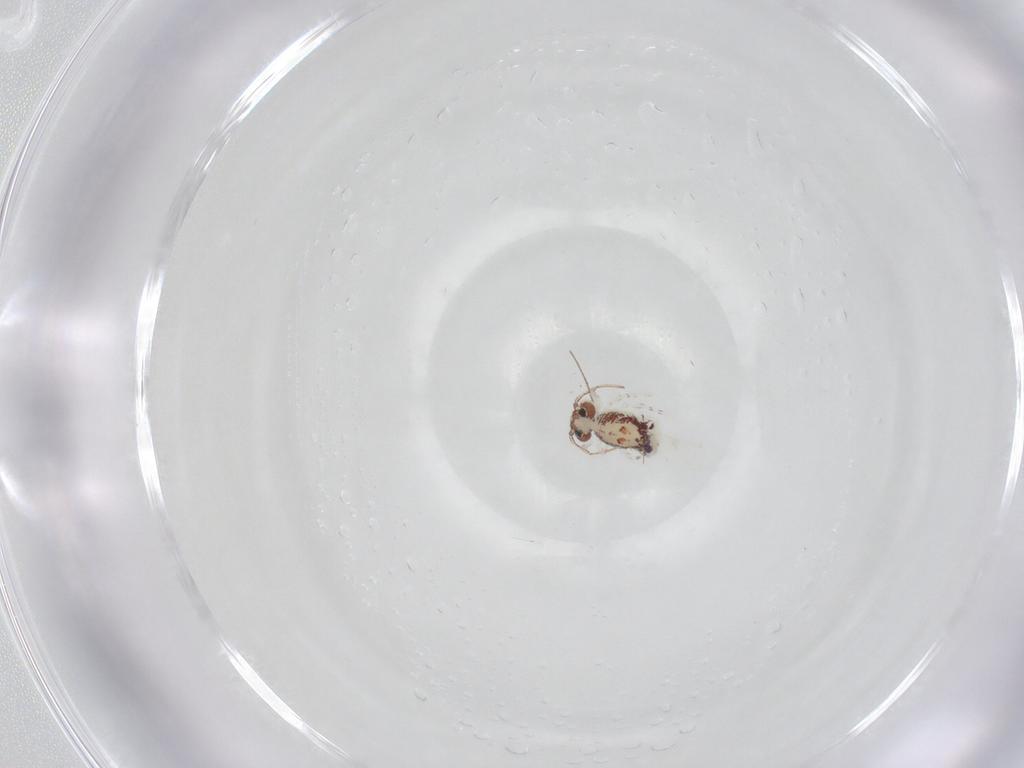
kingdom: Animalia
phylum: Arthropoda
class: Collembola
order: Symphypleona
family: Bourletiellidae
